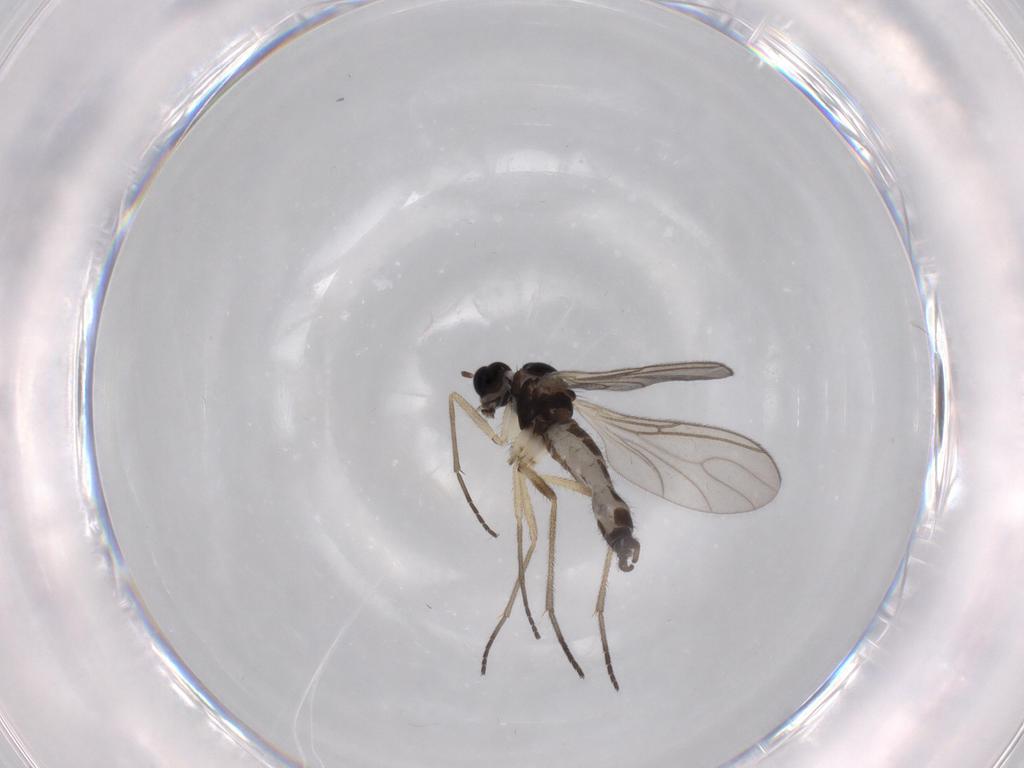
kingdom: Animalia
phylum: Arthropoda
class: Insecta
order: Diptera
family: Sciaridae
